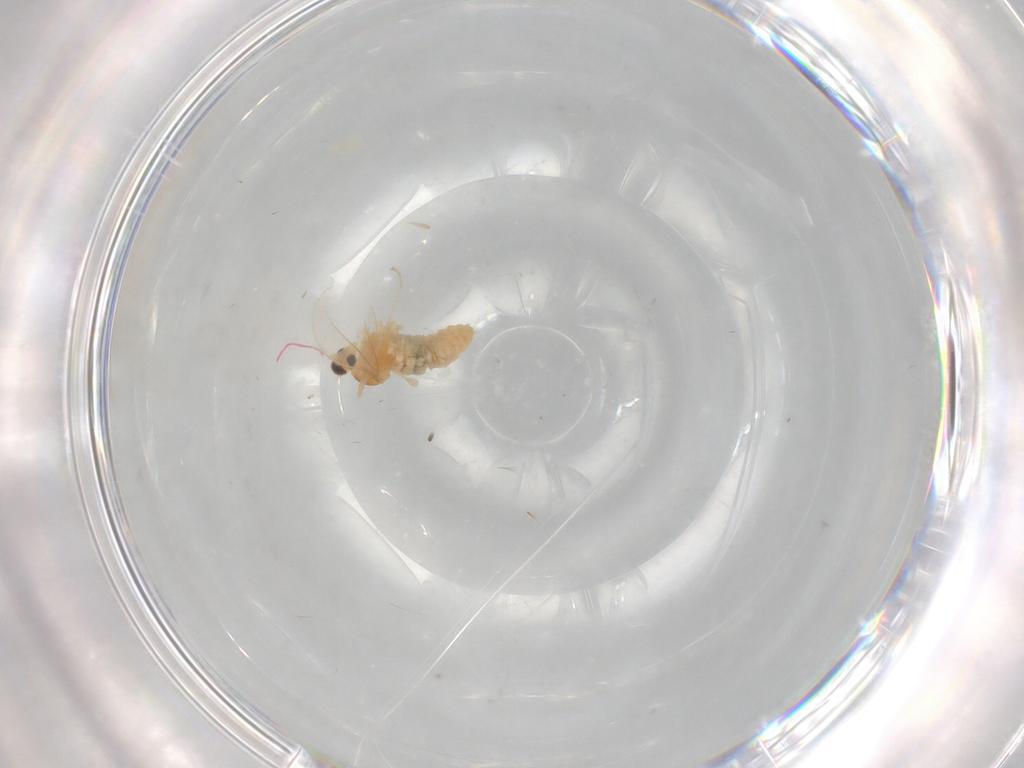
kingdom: Animalia
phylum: Arthropoda
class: Insecta
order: Diptera
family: Cecidomyiidae
